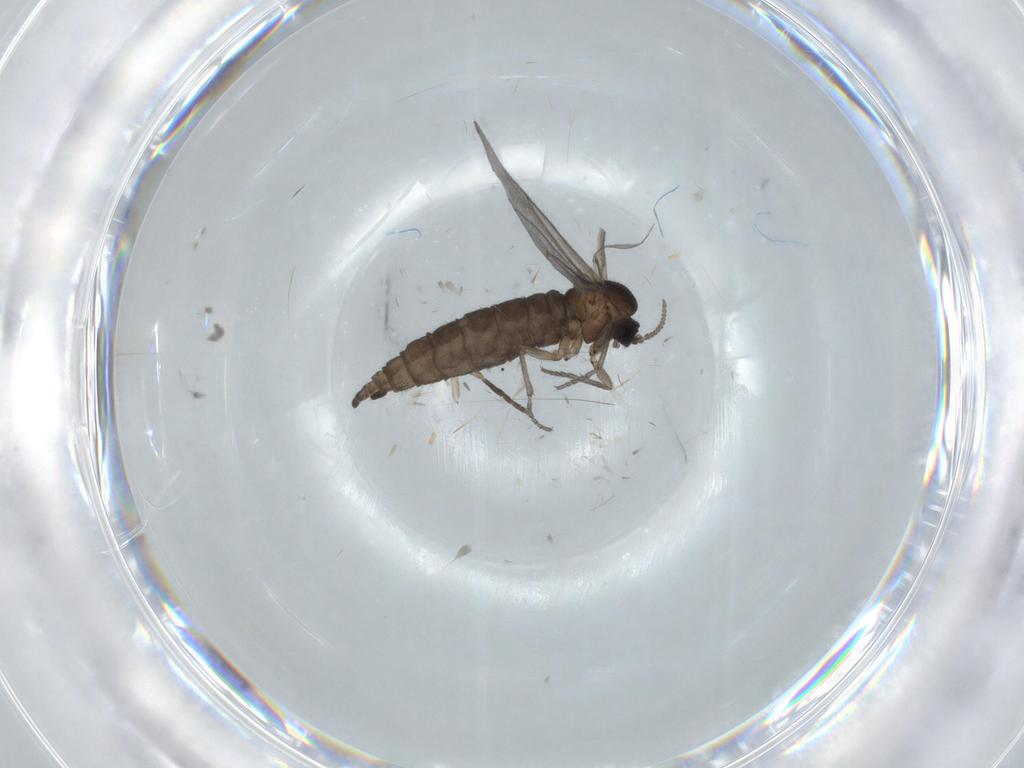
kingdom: Animalia
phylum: Arthropoda
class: Insecta
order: Diptera
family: Sciaridae
